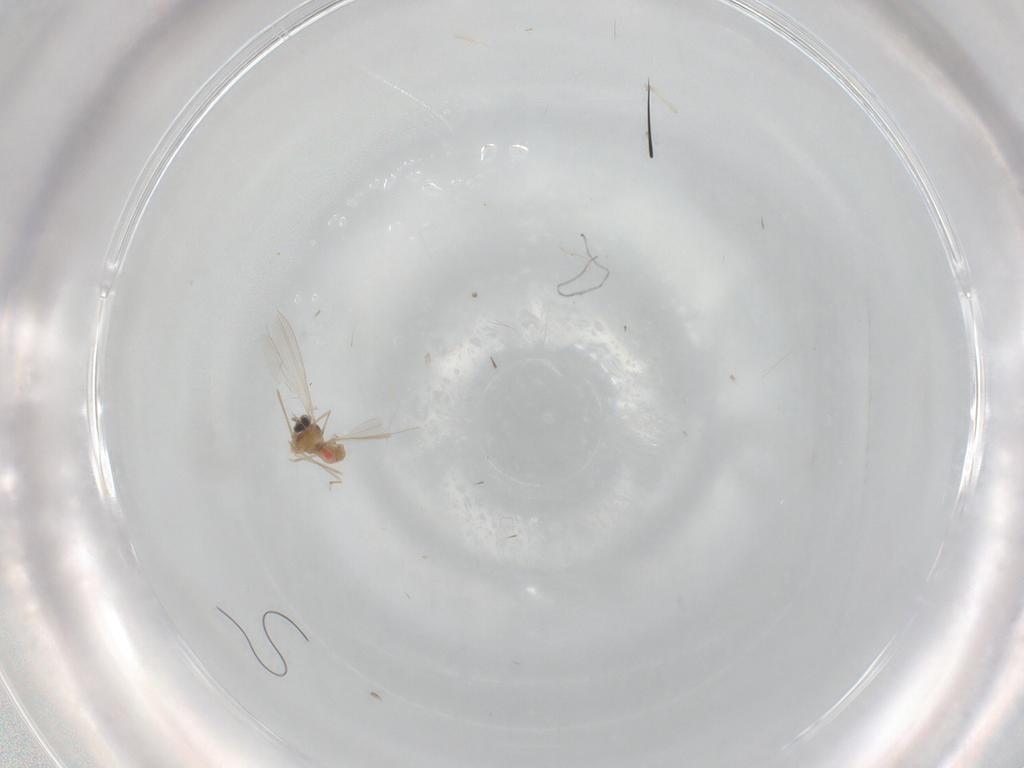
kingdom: Animalia
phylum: Arthropoda
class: Insecta
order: Diptera
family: Cecidomyiidae
